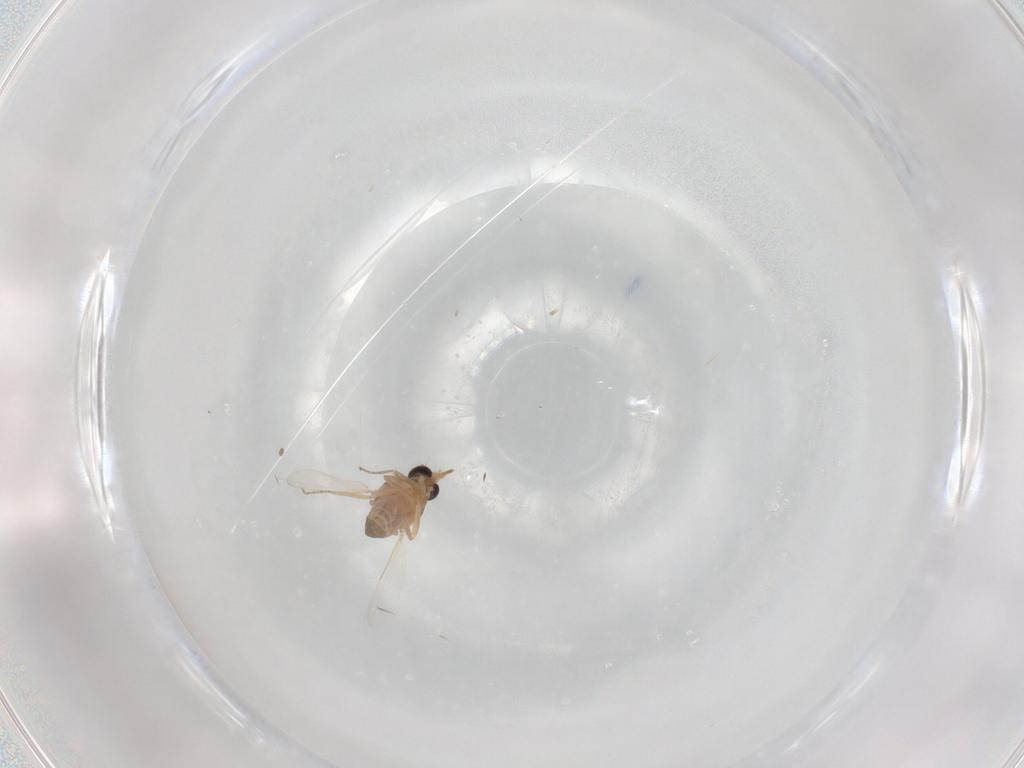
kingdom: Animalia
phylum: Arthropoda
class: Insecta
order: Diptera
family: Ceratopogonidae
